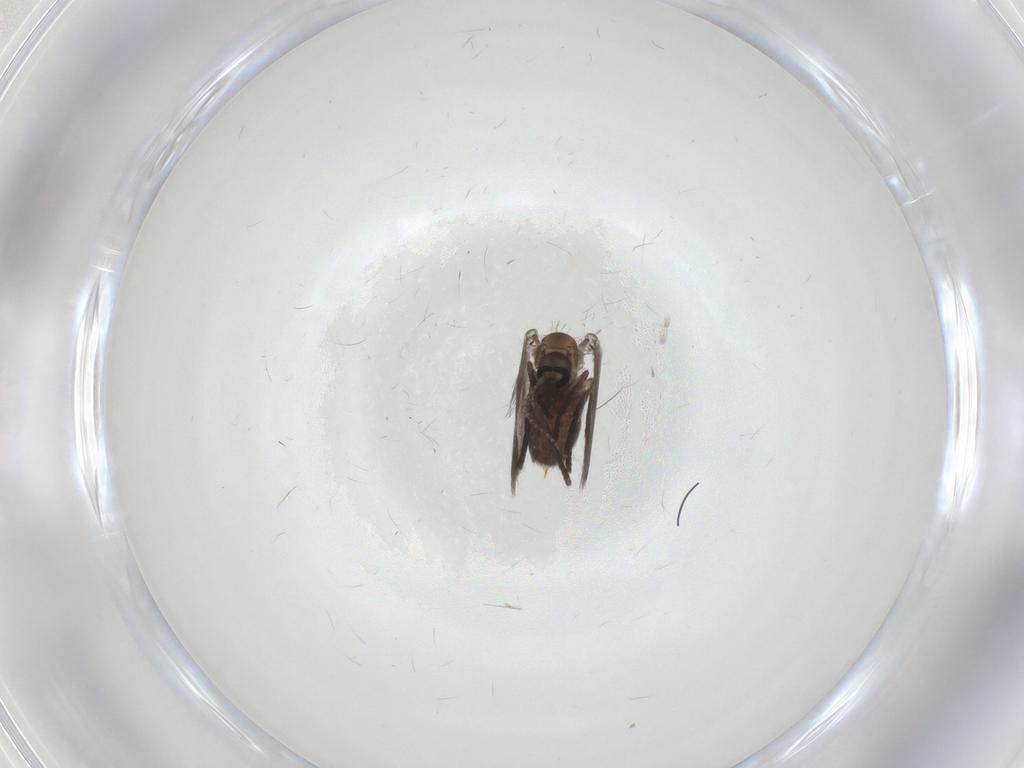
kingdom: Animalia
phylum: Arthropoda
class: Insecta
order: Diptera
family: Psychodidae
